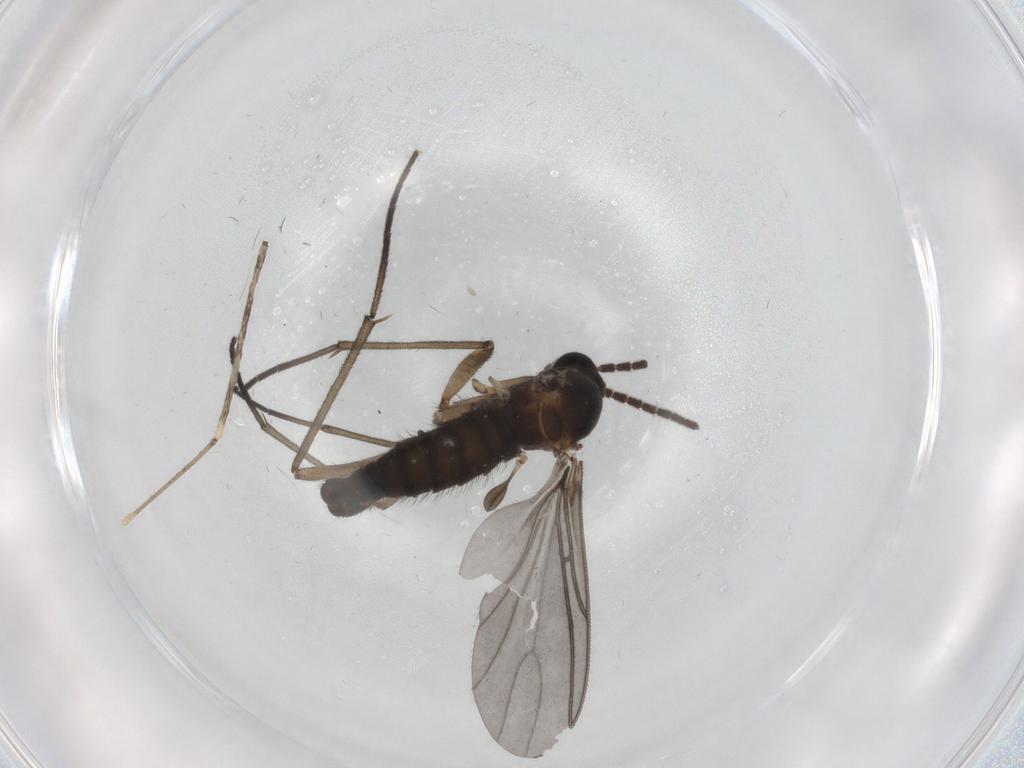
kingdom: Animalia
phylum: Arthropoda
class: Insecta
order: Diptera
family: Sciaridae
